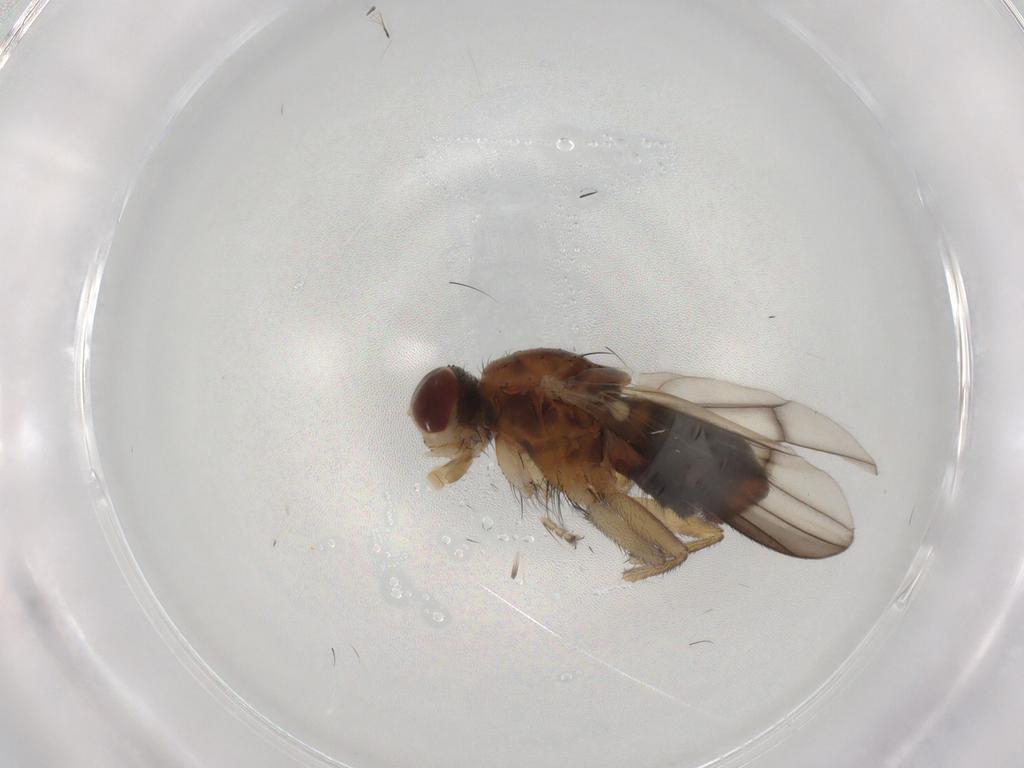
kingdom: Animalia
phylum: Arthropoda
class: Insecta
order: Diptera
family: Heleomyzidae
